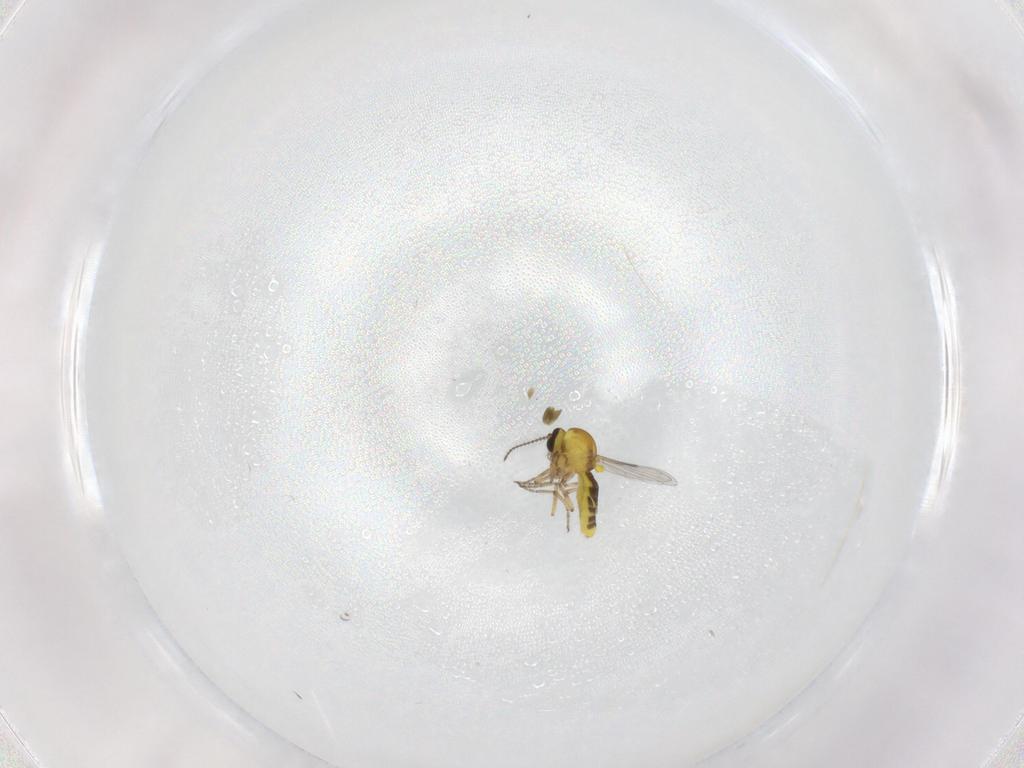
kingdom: Animalia
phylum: Arthropoda
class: Insecta
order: Diptera
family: Ceratopogonidae
